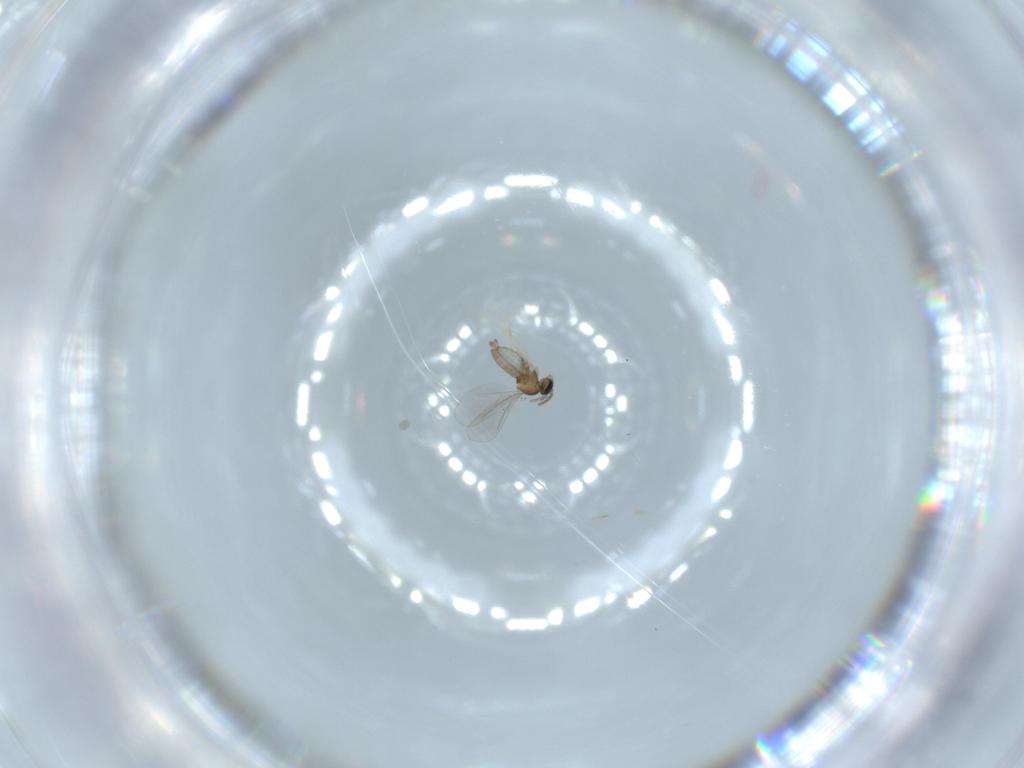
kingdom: Animalia
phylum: Arthropoda
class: Insecta
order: Diptera
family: Cecidomyiidae
